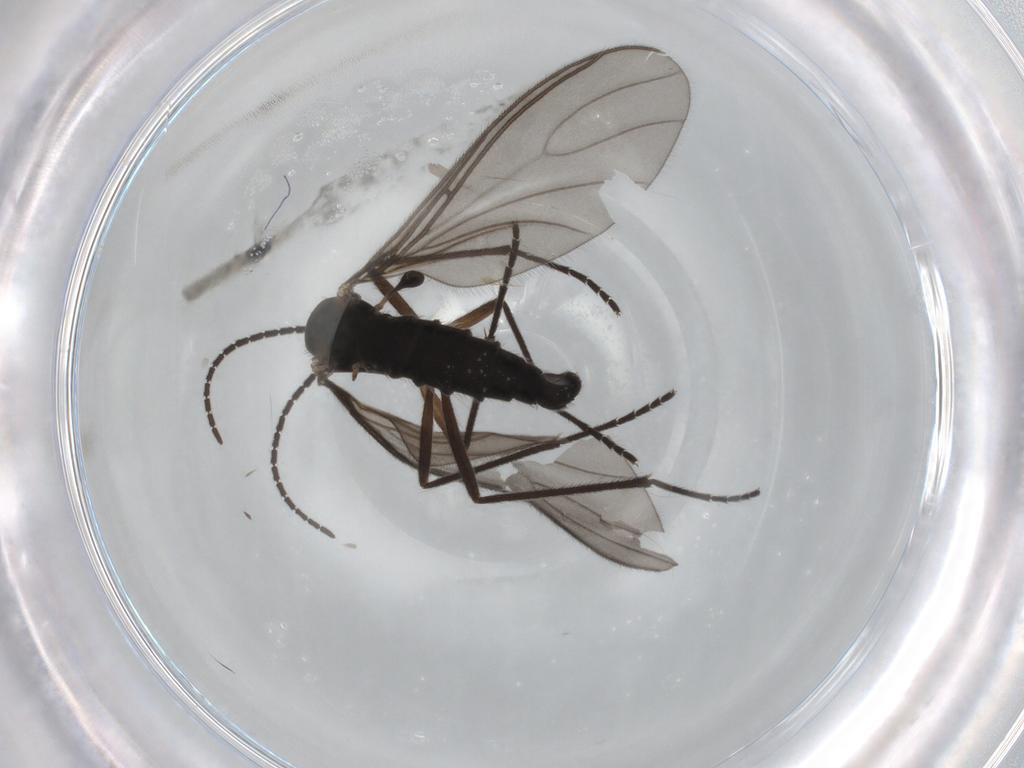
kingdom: Animalia
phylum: Arthropoda
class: Insecta
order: Diptera
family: Sciaridae
